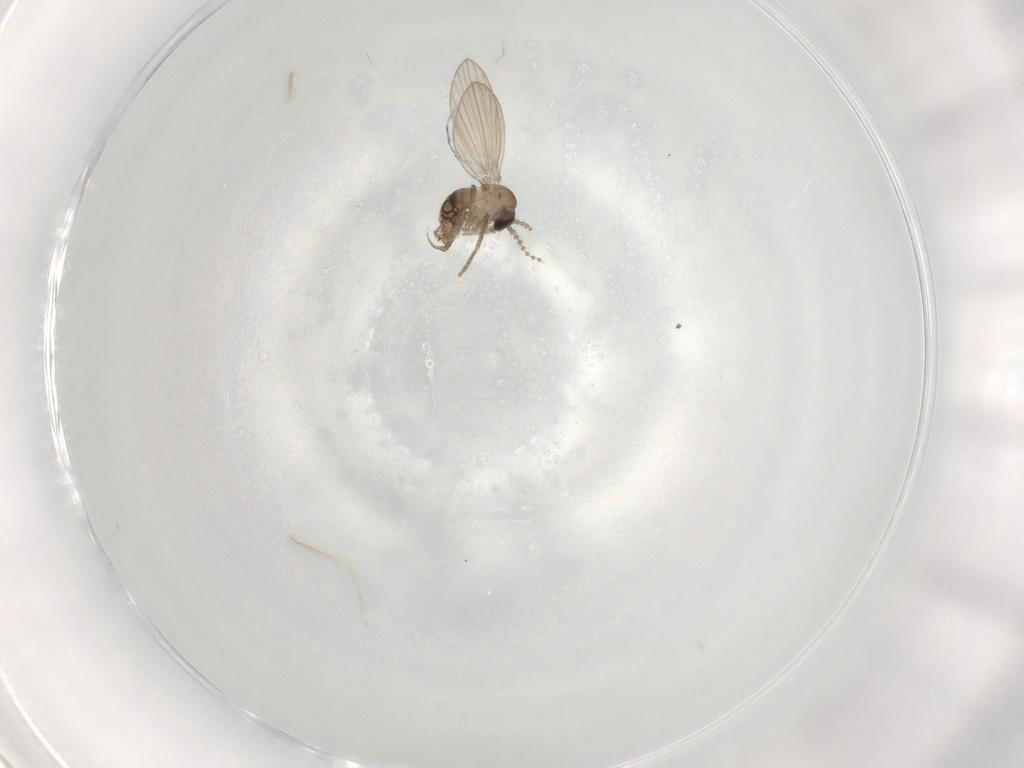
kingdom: Animalia
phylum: Arthropoda
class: Insecta
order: Diptera
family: Psychodidae
